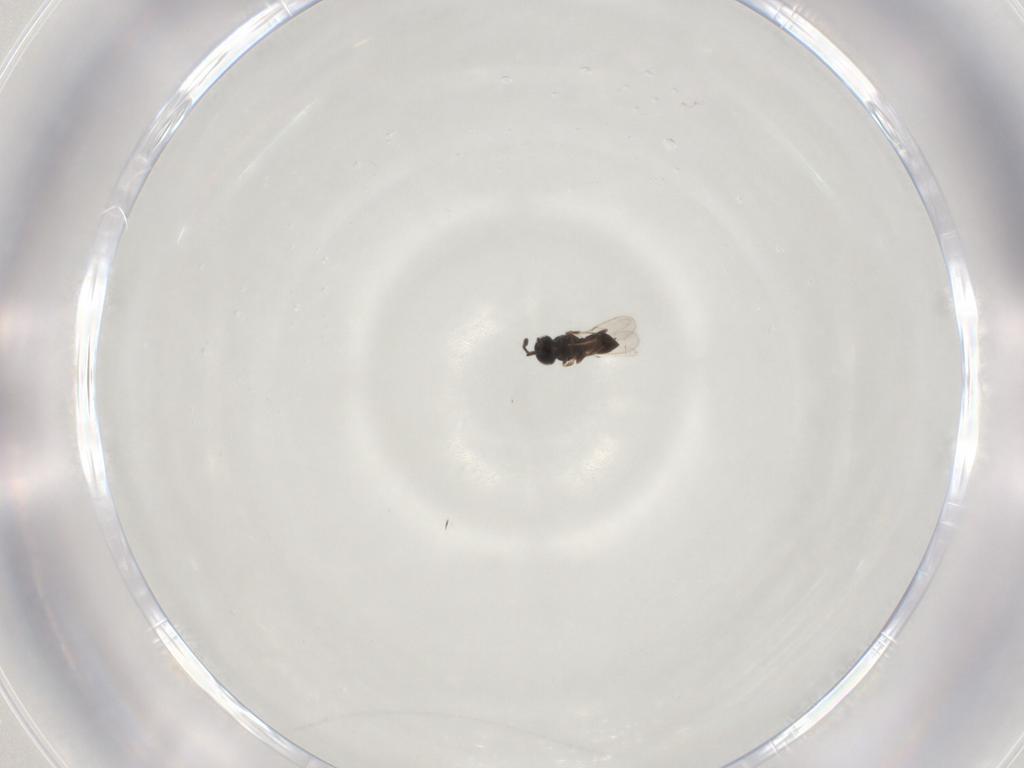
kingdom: Animalia
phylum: Arthropoda
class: Insecta
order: Hymenoptera
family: Scelionidae
